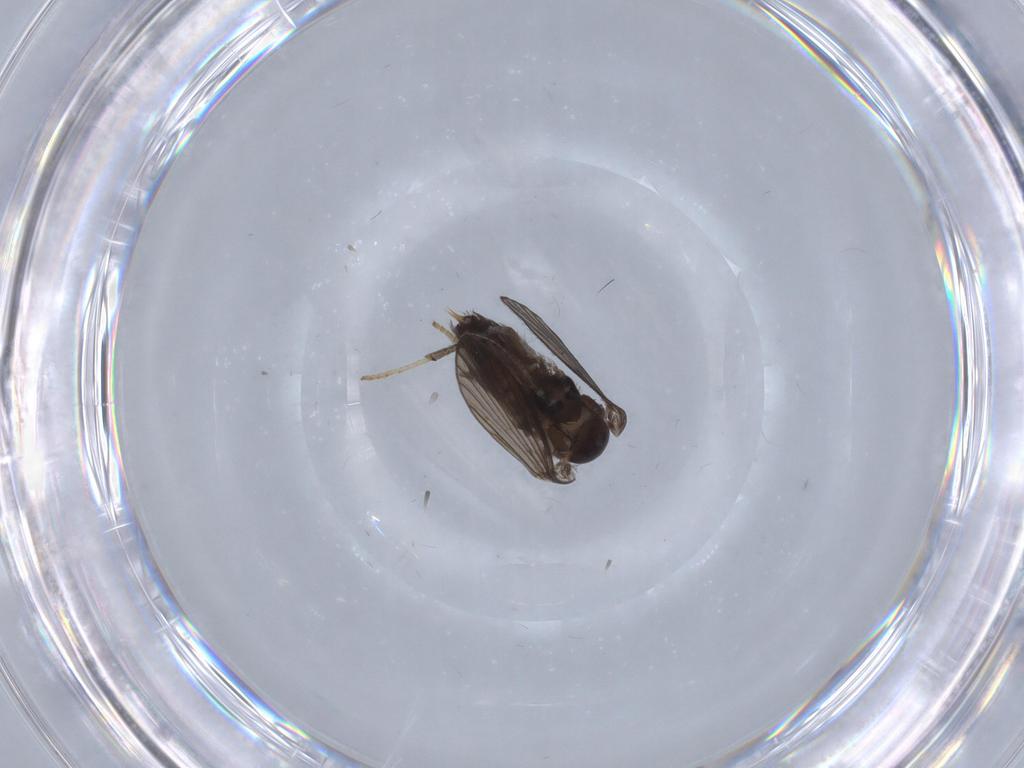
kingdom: Animalia
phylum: Arthropoda
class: Insecta
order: Diptera
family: Psychodidae
